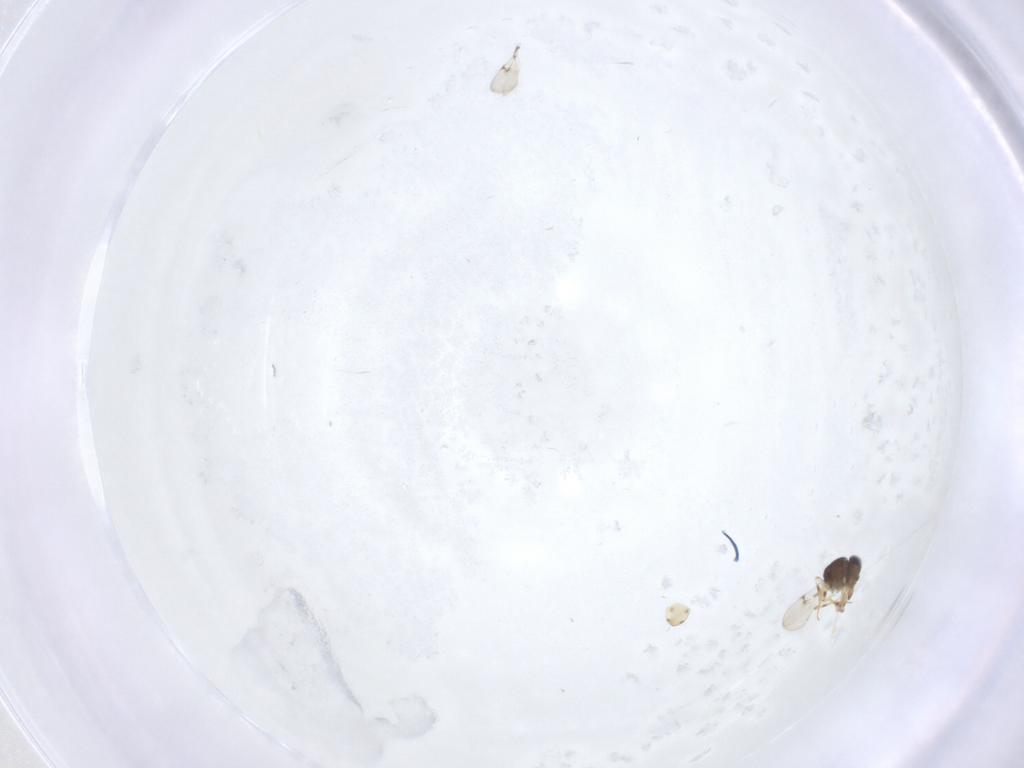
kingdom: Animalia
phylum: Arthropoda
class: Insecta
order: Hymenoptera
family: Scelionidae
